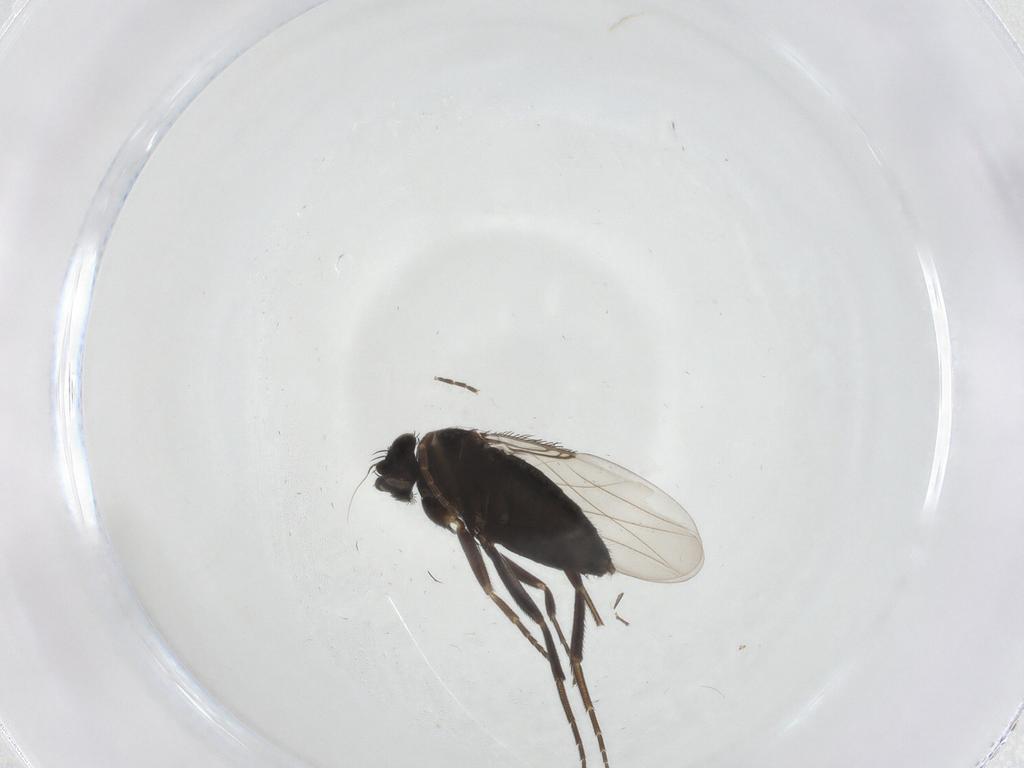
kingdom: Animalia
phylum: Arthropoda
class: Insecta
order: Diptera
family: Phoridae
